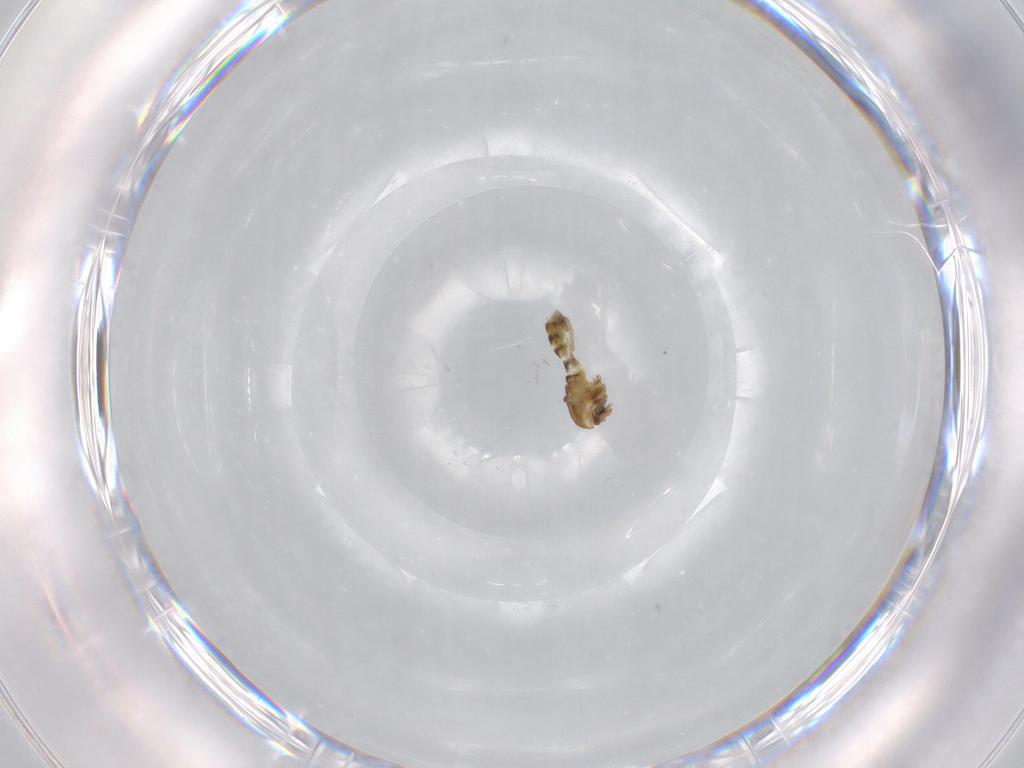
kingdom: Animalia
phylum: Arthropoda
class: Insecta
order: Diptera
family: Chironomidae
